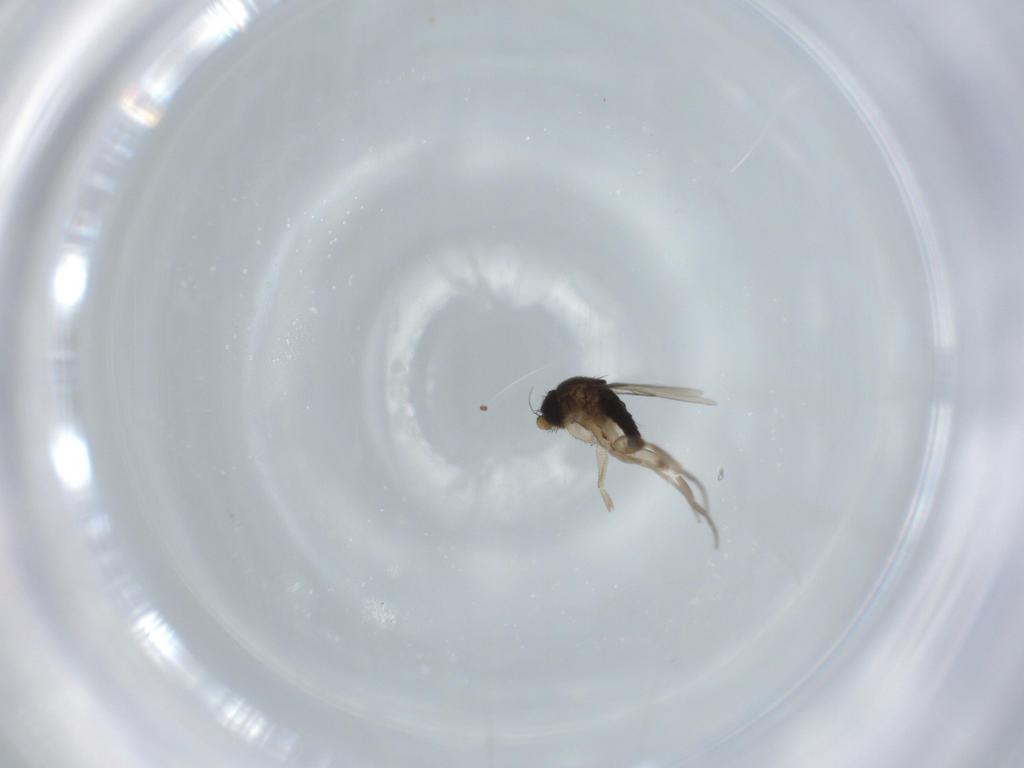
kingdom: Animalia
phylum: Arthropoda
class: Insecta
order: Diptera
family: Phoridae
